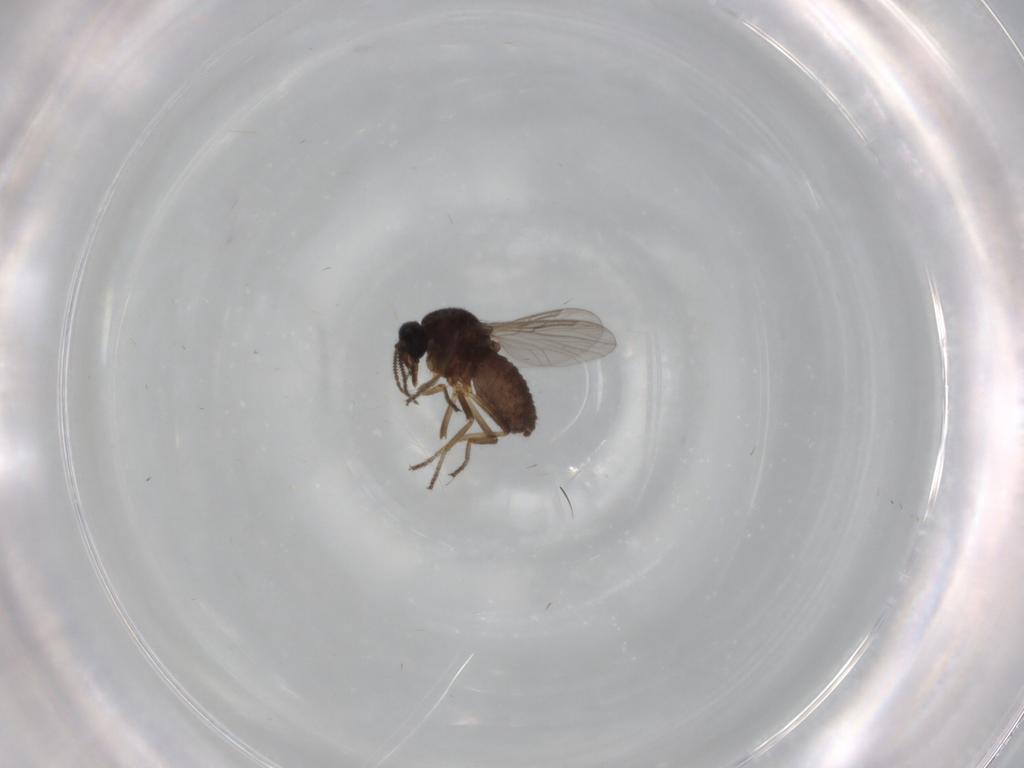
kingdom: Animalia
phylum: Arthropoda
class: Insecta
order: Diptera
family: Ceratopogonidae
